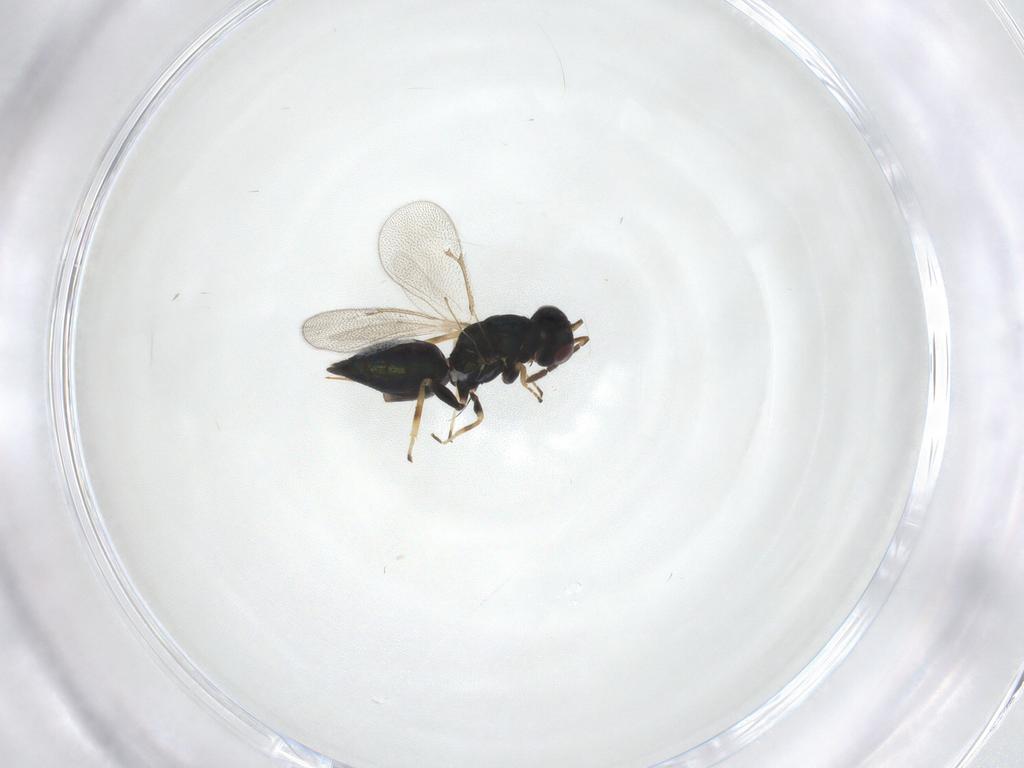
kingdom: Animalia
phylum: Arthropoda
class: Insecta
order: Hymenoptera
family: Eulophidae
